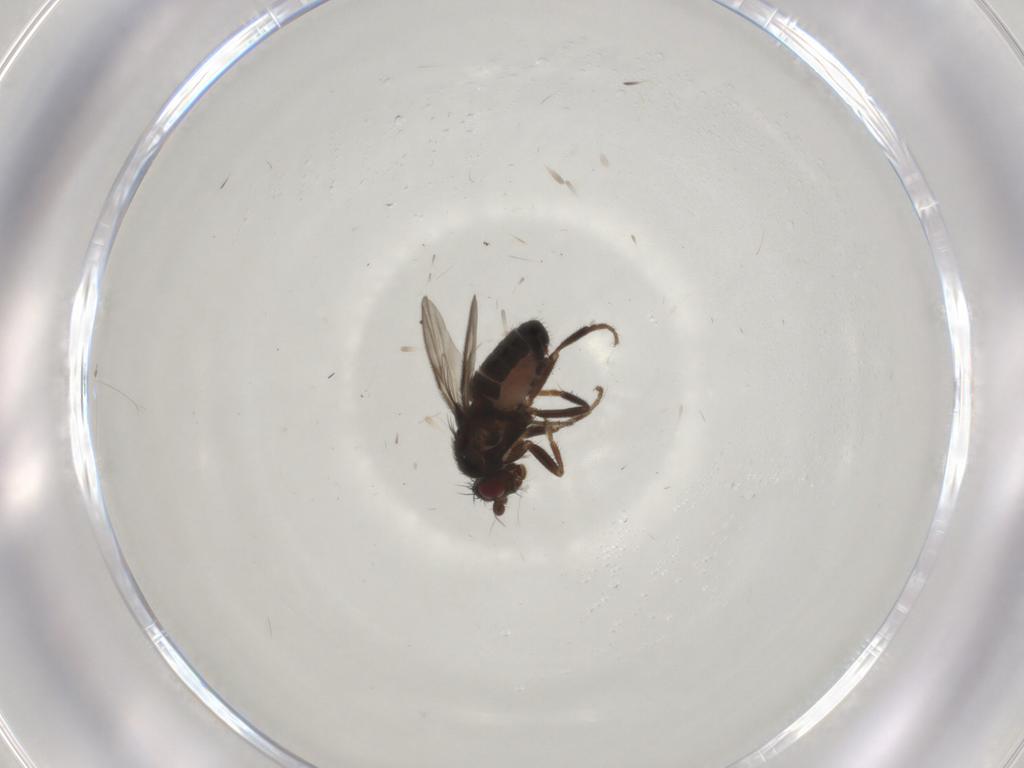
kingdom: Animalia
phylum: Arthropoda
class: Insecta
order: Diptera
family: Sphaeroceridae
